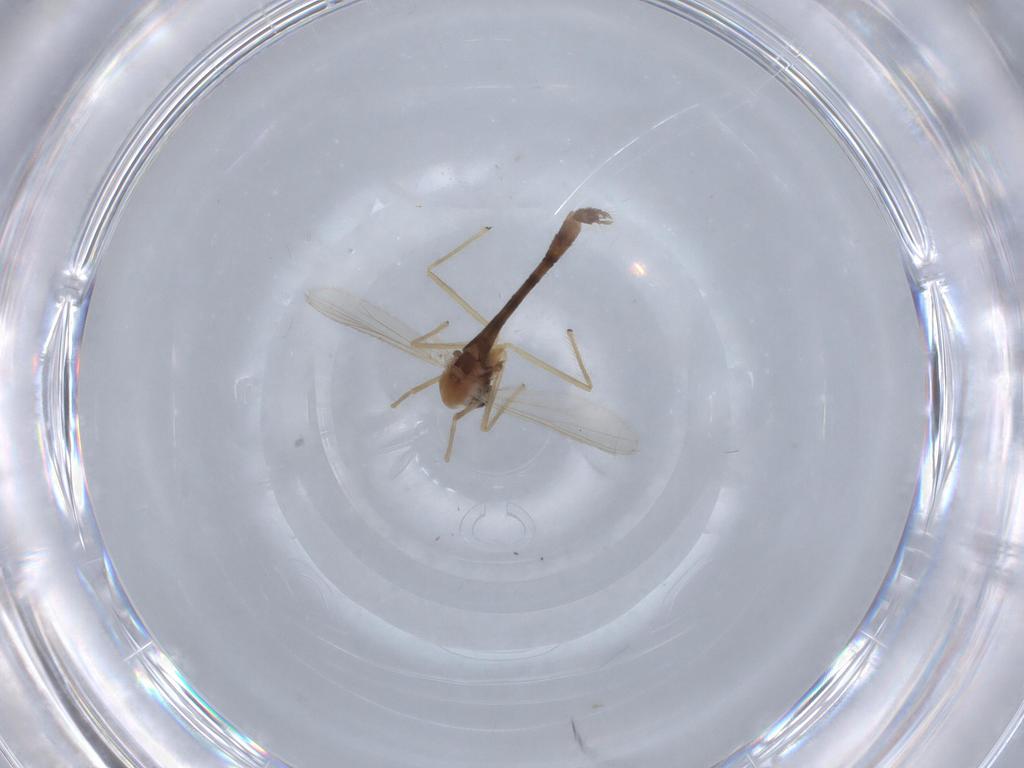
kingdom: Animalia
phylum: Arthropoda
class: Insecta
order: Diptera
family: Chironomidae
